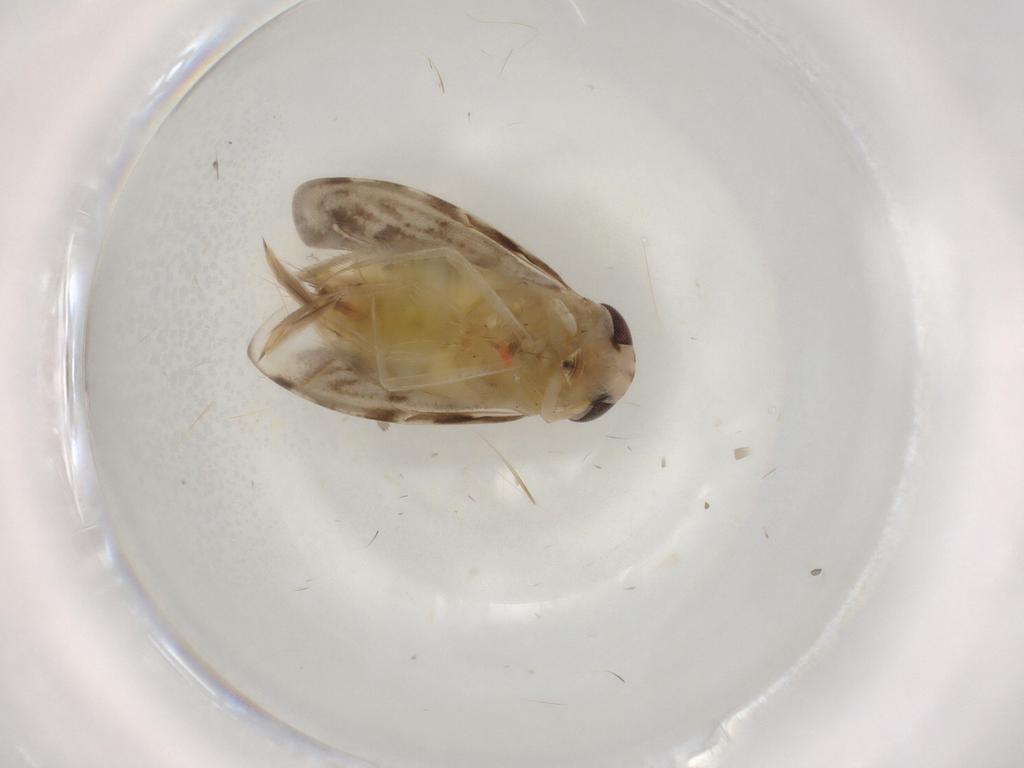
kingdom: Animalia
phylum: Arthropoda
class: Insecta
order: Hemiptera
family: Corixidae
